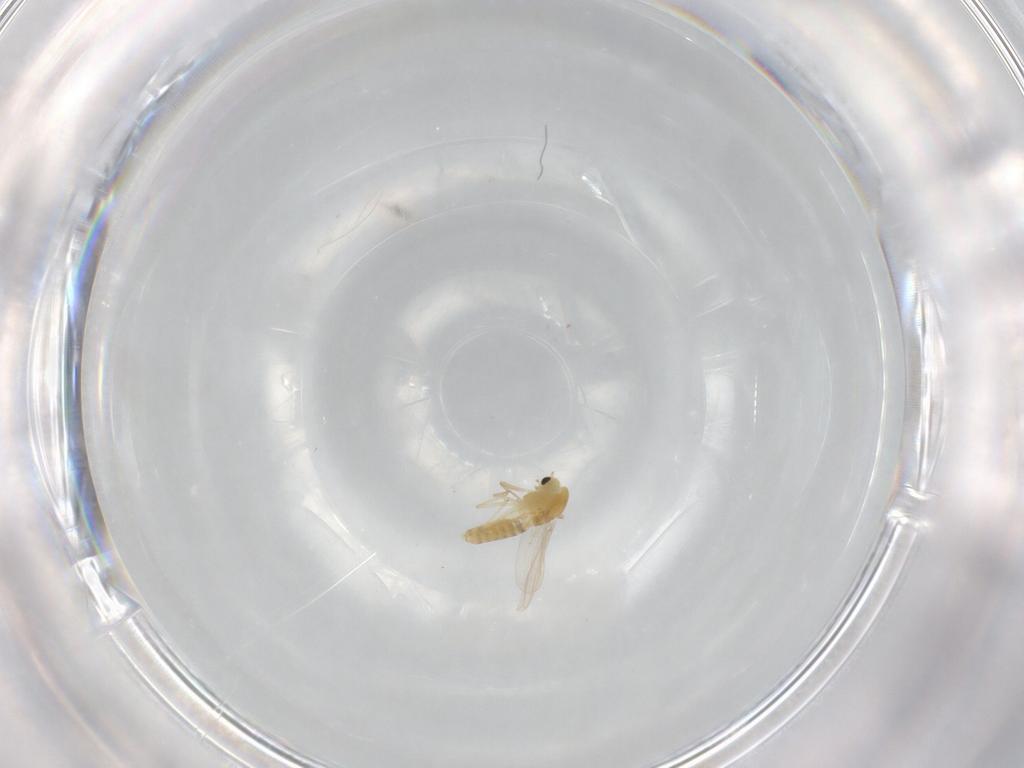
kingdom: Animalia
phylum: Arthropoda
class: Insecta
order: Diptera
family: Chironomidae
